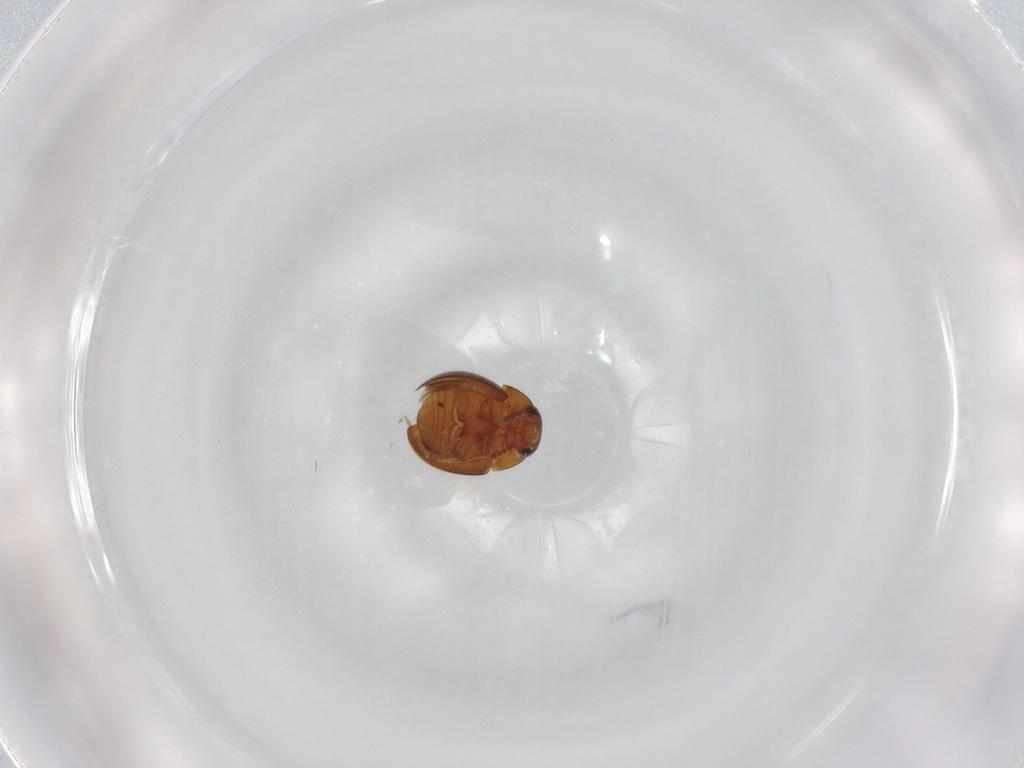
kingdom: Animalia
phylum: Arthropoda
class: Insecta
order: Coleoptera
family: Leiodidae
